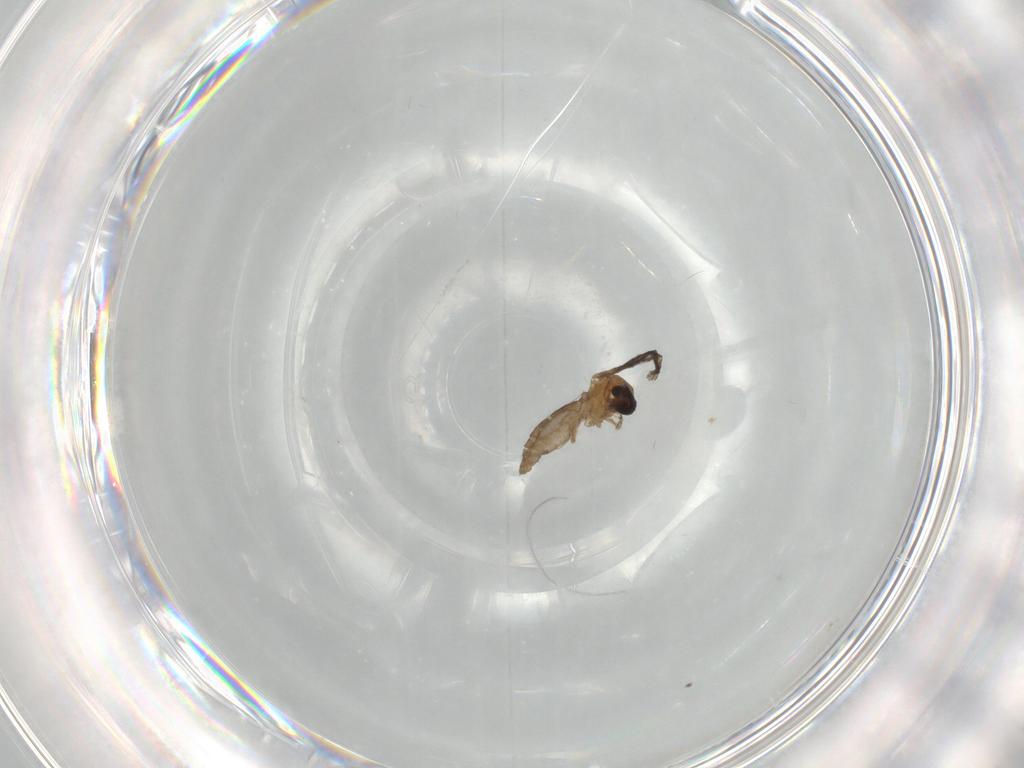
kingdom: Animalia
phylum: Arthropoda
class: Insecta
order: Diptera
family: Ceratopogonidae
